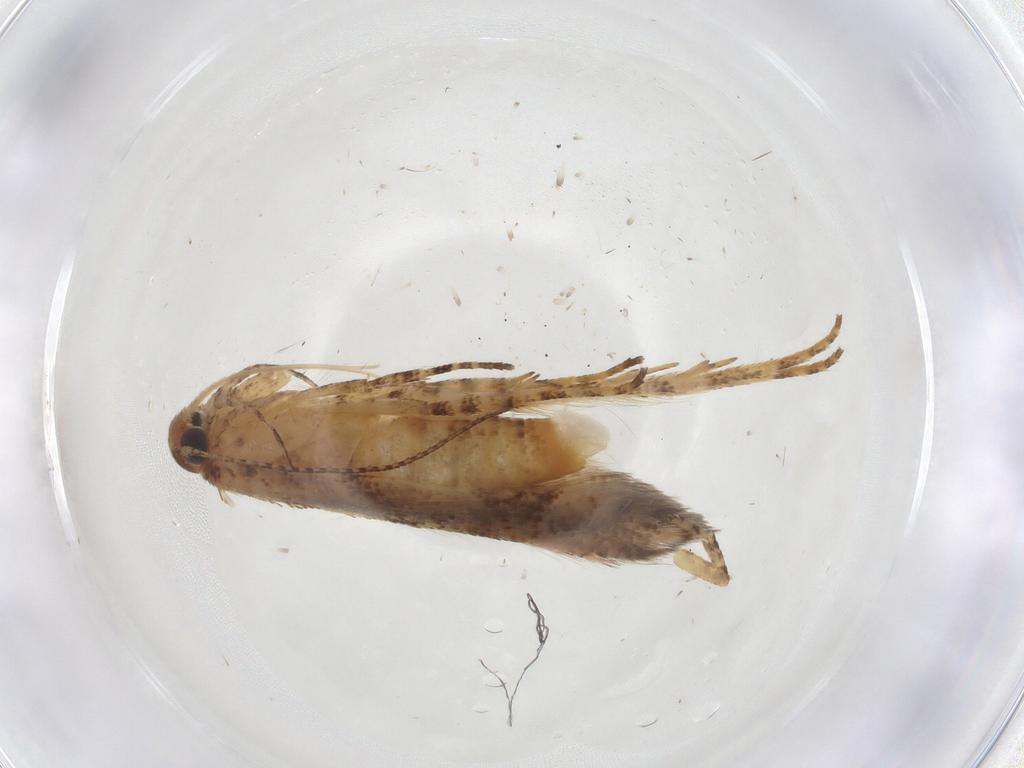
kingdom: Animalia
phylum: Arthropoda
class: Insecta
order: Lepidoptera
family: Gelechiidae
